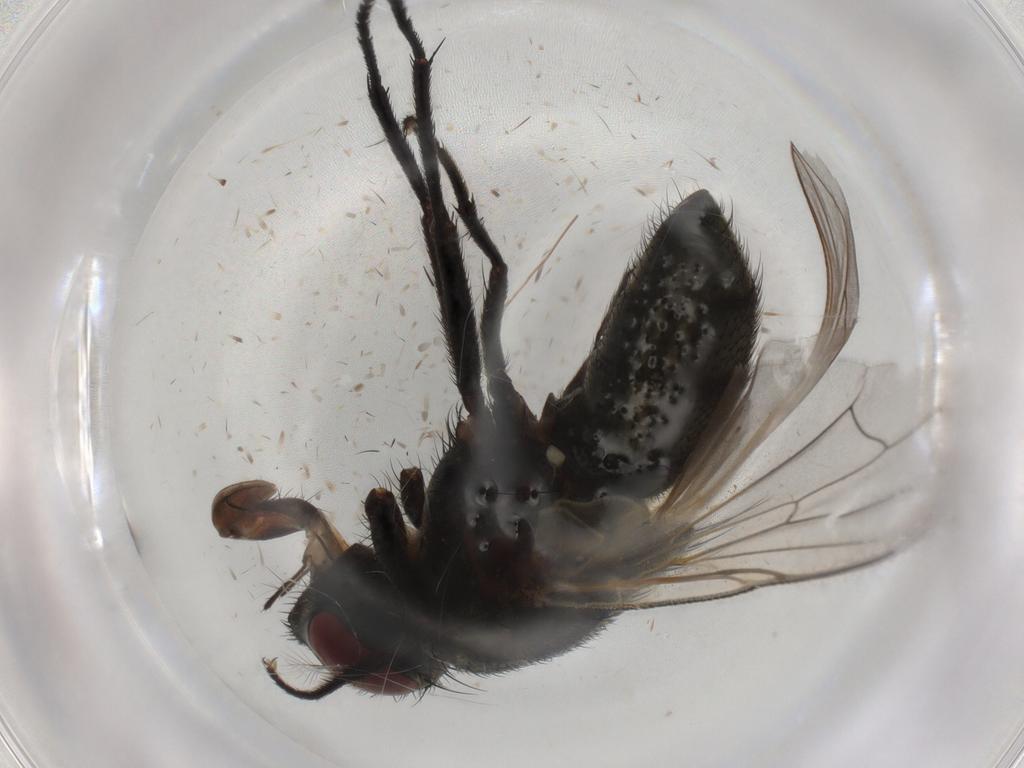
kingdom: Animalia
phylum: Arthropoda
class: Insecta
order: Diptera
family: Muscidae
